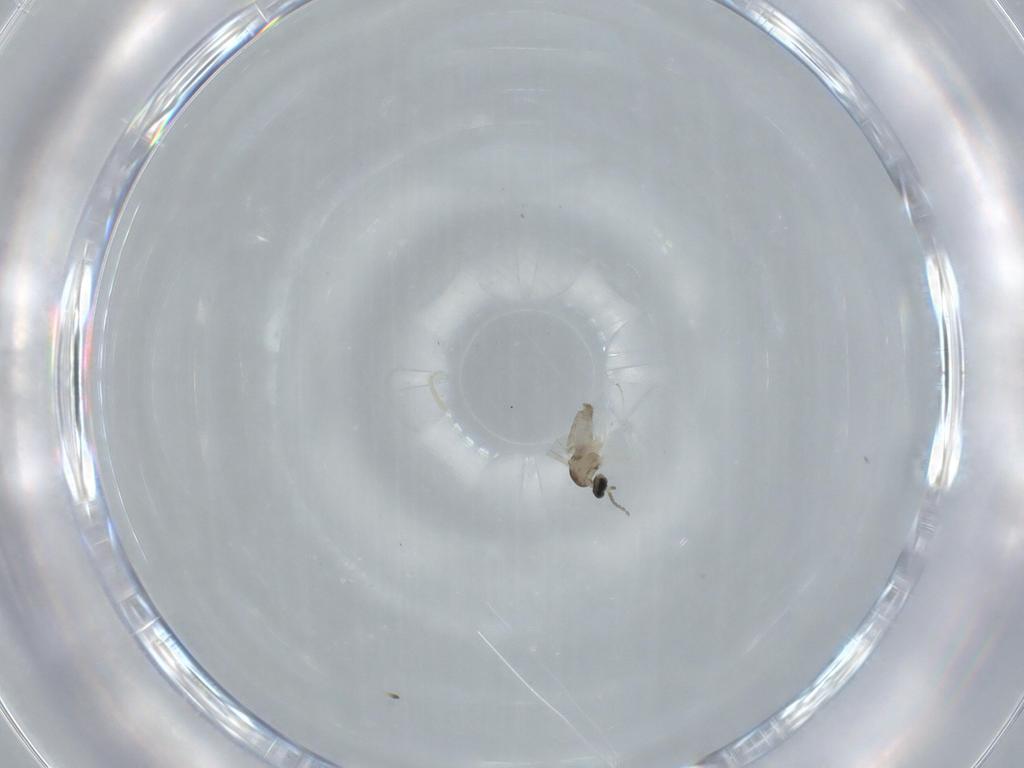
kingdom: Animalia
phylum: Arthropoda
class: Insecta
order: Diptera
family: Cecidomyiidae
